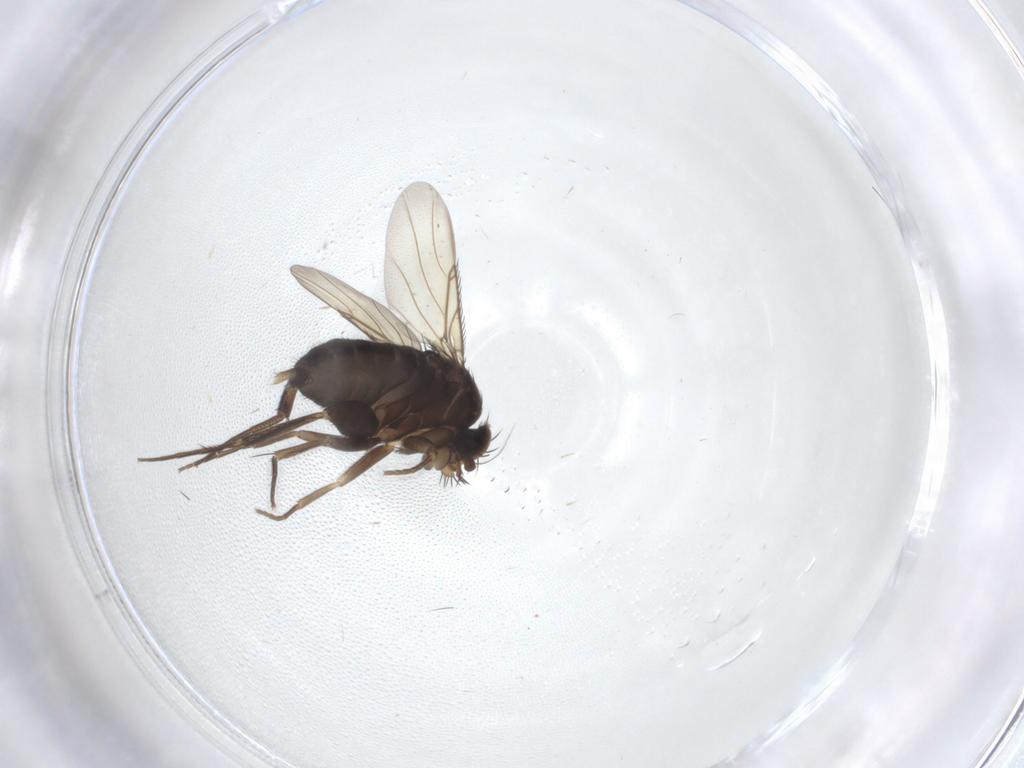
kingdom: Animalia
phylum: Arthropoda
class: Insecta
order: Diptera
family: Phoridae
